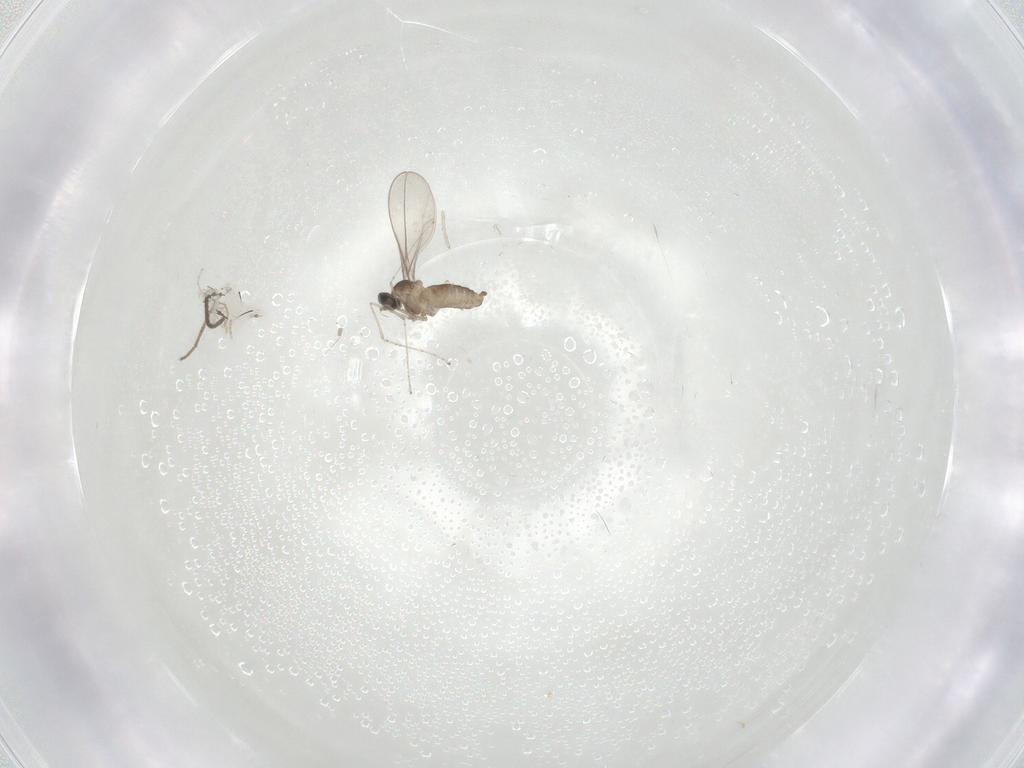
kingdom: Animalia
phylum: Arthropoda
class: Insecta
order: Diptera
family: Sciaridae
